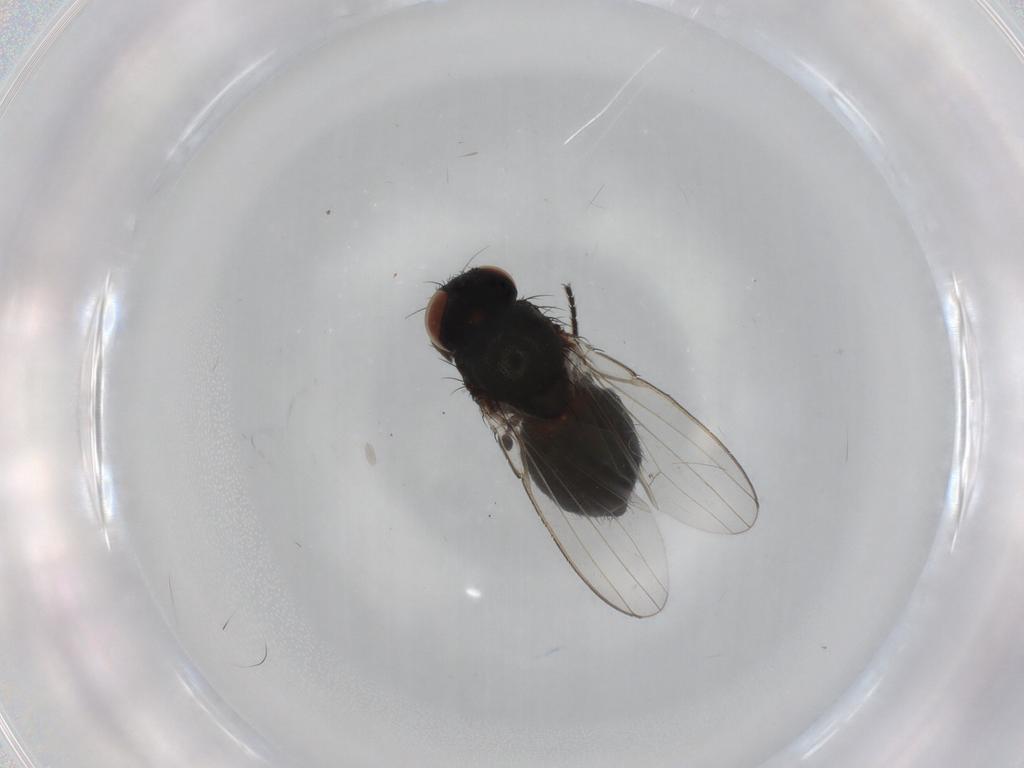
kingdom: Animalia
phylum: Arthropoda
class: Insecta
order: Diptera
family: Milichiidae
